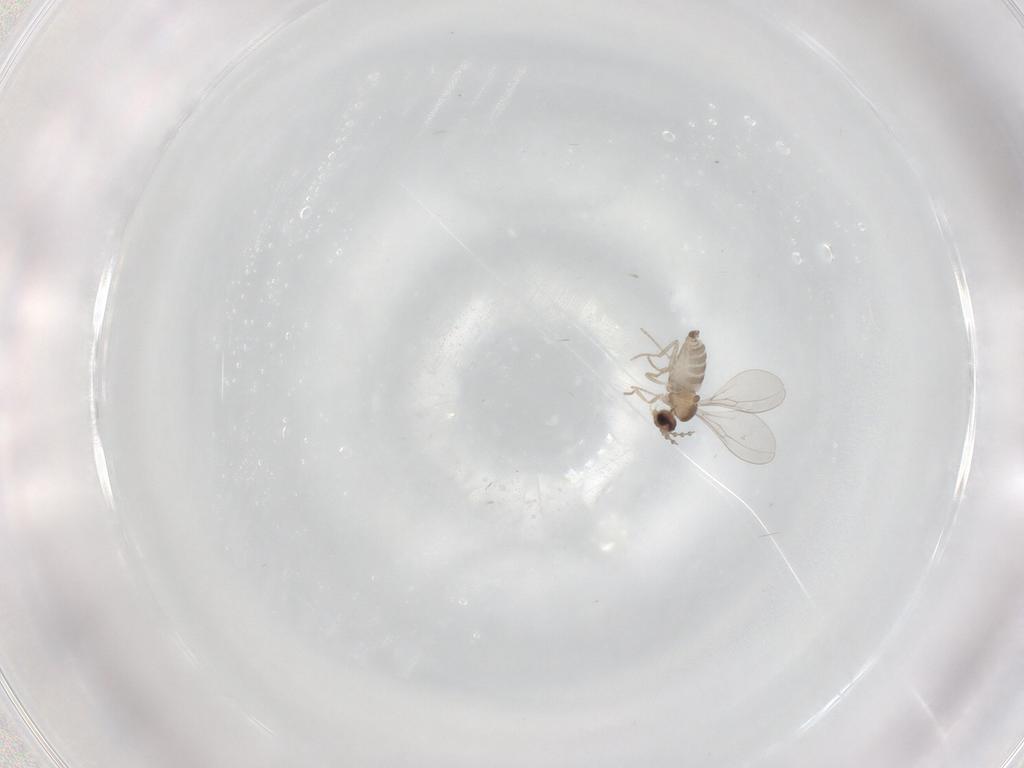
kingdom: Animalia
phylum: Arthropoda
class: Insecta
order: Diptera
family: Cecidomyiidae
